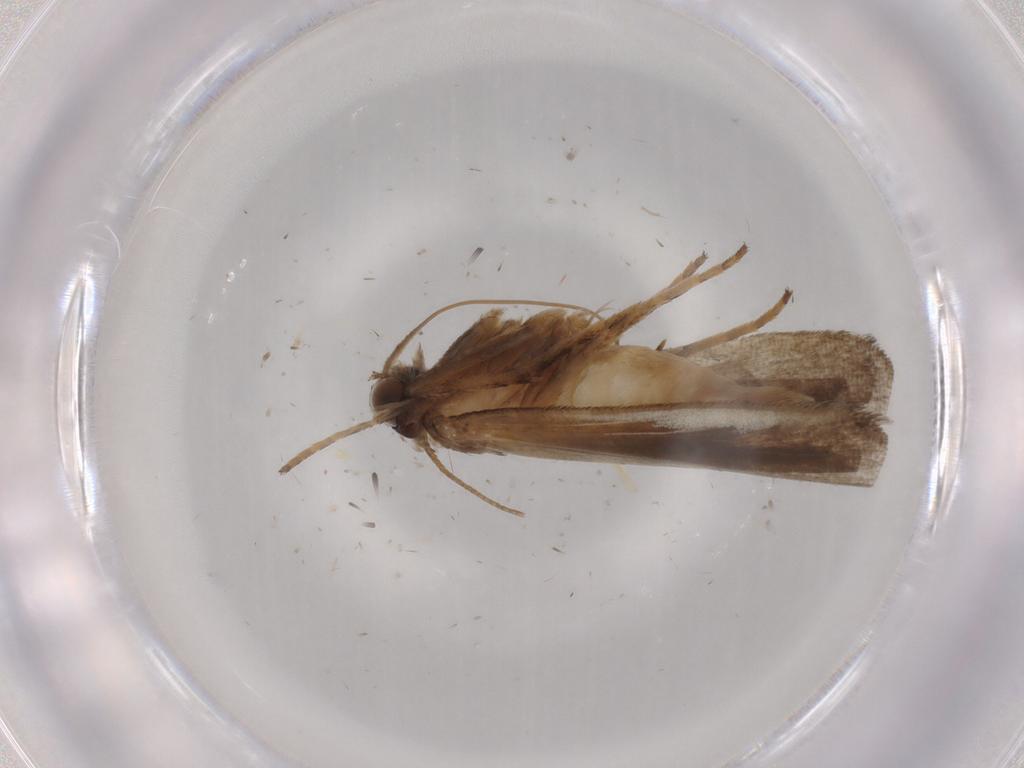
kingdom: Animalia
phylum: Arthropoda
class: Insecta
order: Lepidoptera
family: Noctuidae
